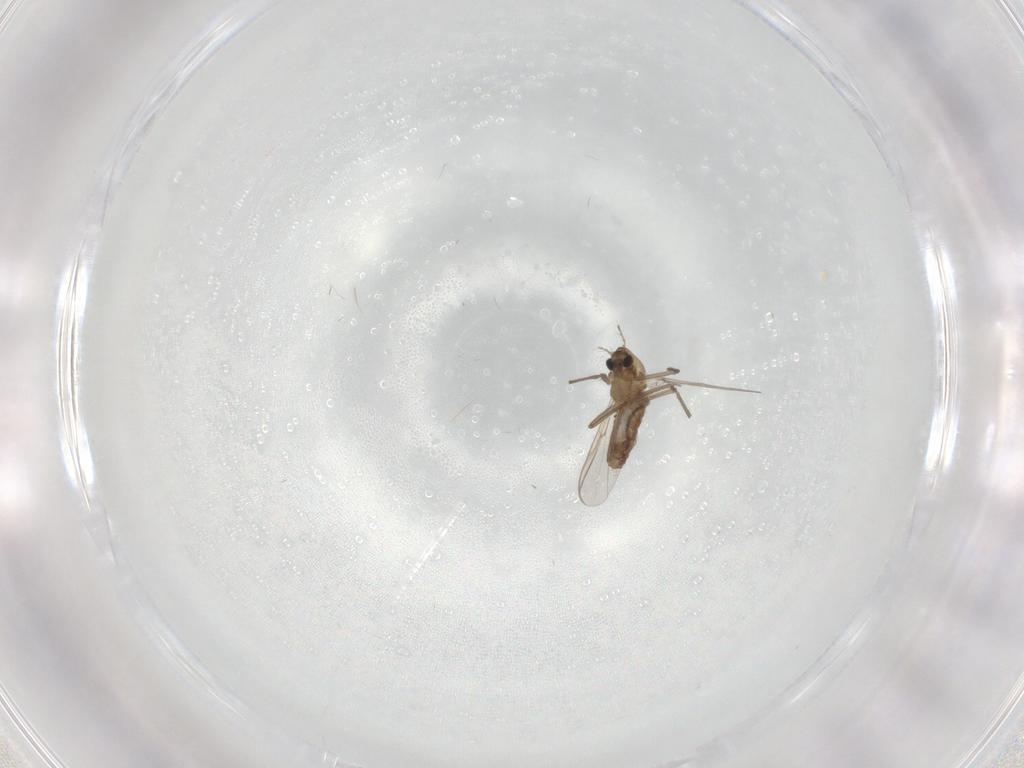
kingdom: Animalia
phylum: Arthropoda
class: Insecta
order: Diptera
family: Chironomidae
